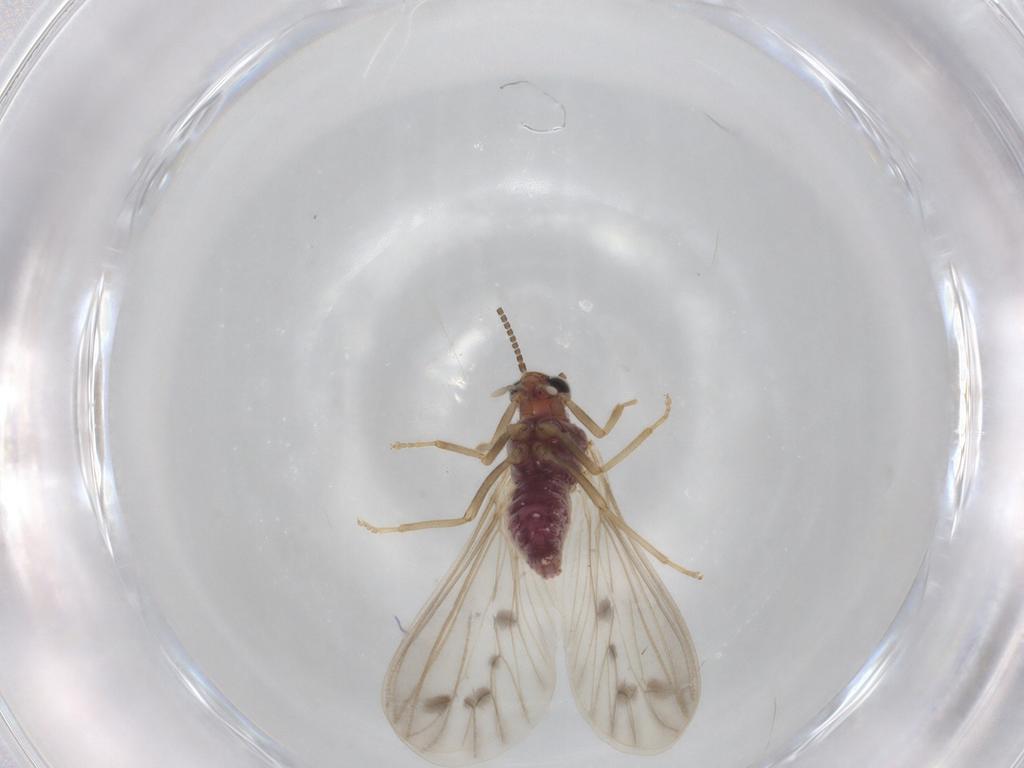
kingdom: Animalia
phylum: Arthropoda
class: Insecta
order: Neuroptera
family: Coniopterygidae
